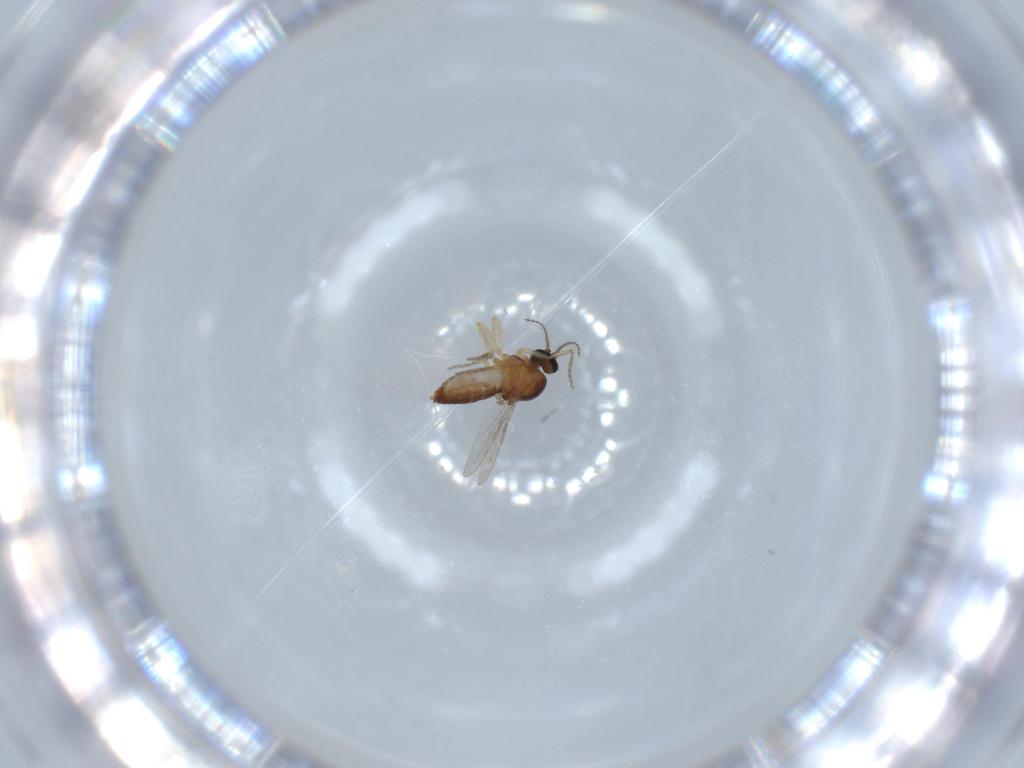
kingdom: Animalia
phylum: Arthropoda
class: Insecta
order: Diptera
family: Ceratopogonidae
